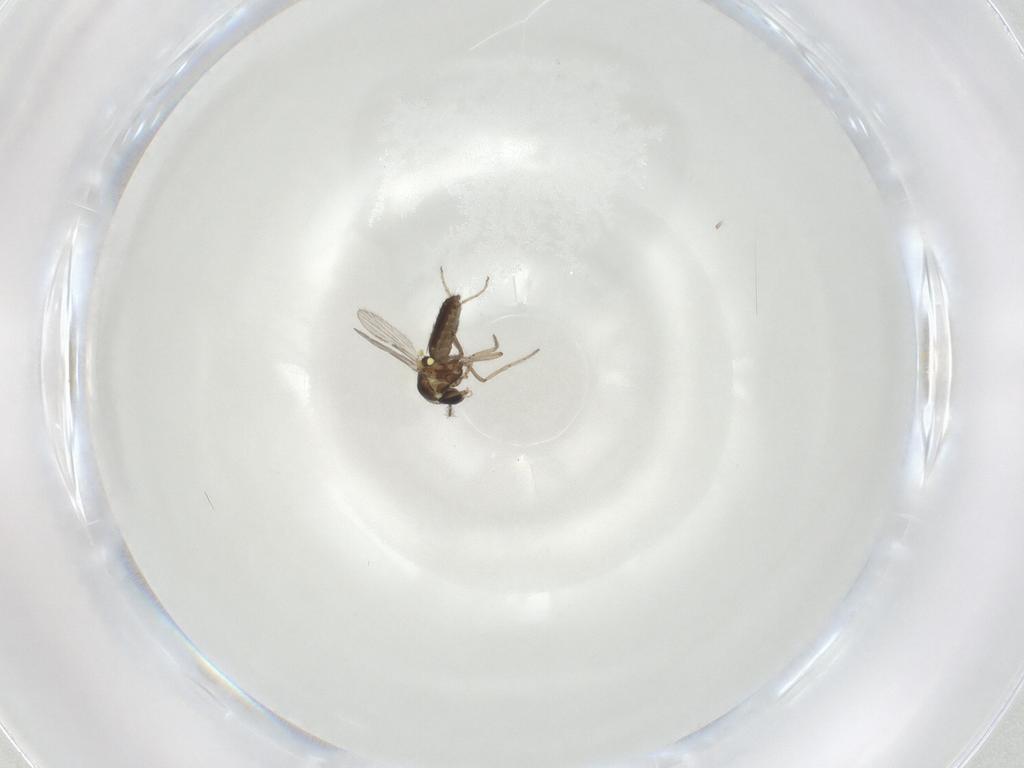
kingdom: Animalia
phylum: Arthropoda
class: Insecta
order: Diptera
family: Ceratopogonidae
